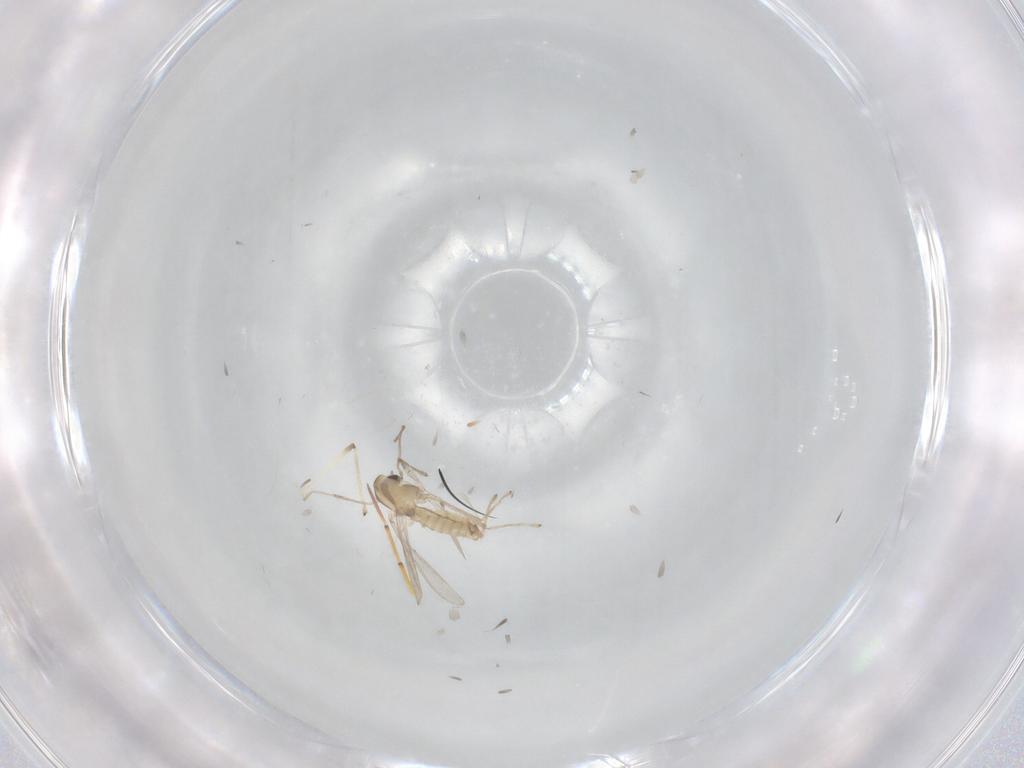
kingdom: Animalia
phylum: Arthropoda
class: Insecta
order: Diptera
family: Chironomidae
